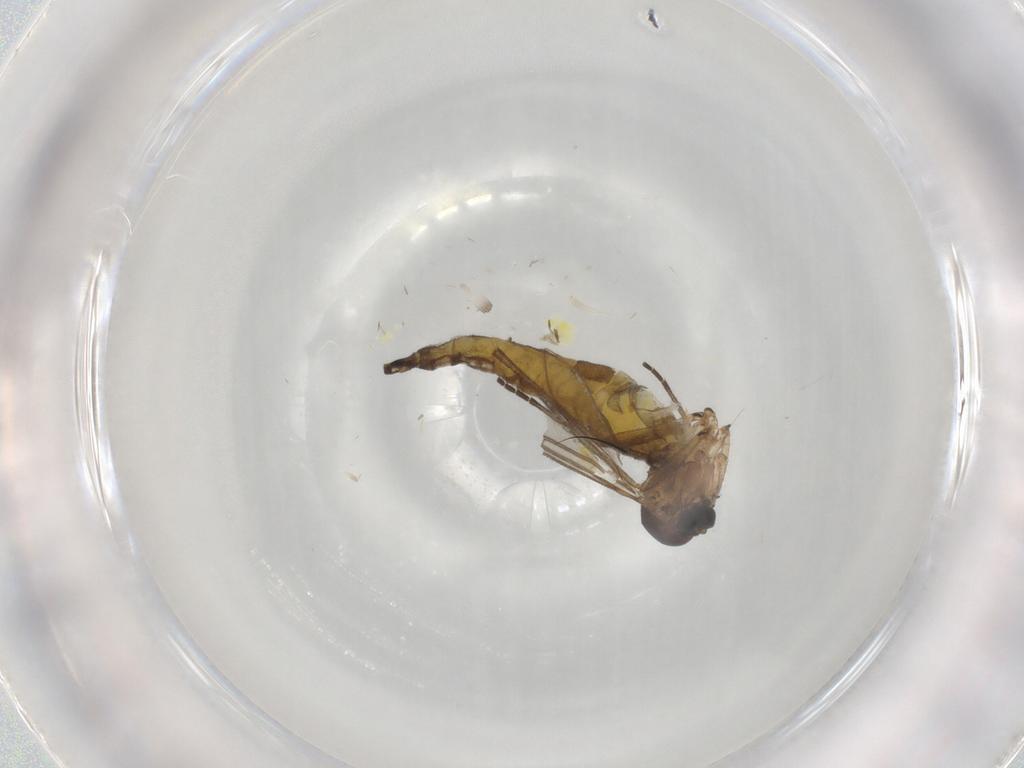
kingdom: Animalia
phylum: Arthropoda
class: Insecta
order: Diptera
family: Sciaridae
